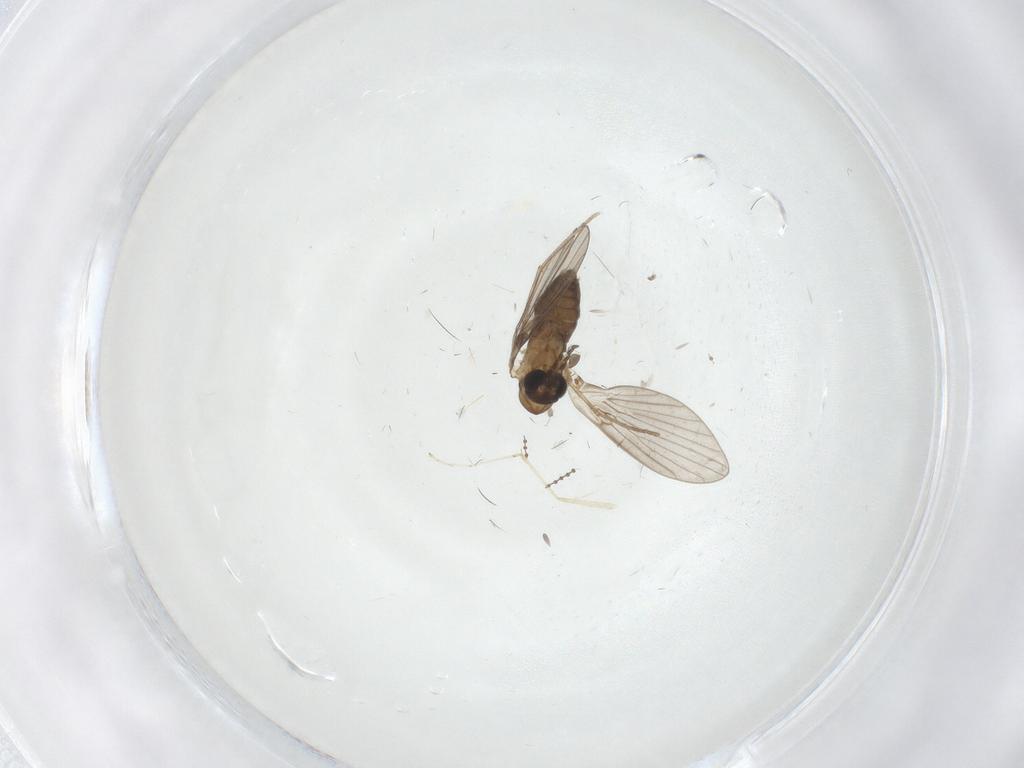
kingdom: Animalia
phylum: Arthropoda
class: Insecta
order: Diptera
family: Cecidomyiidae
